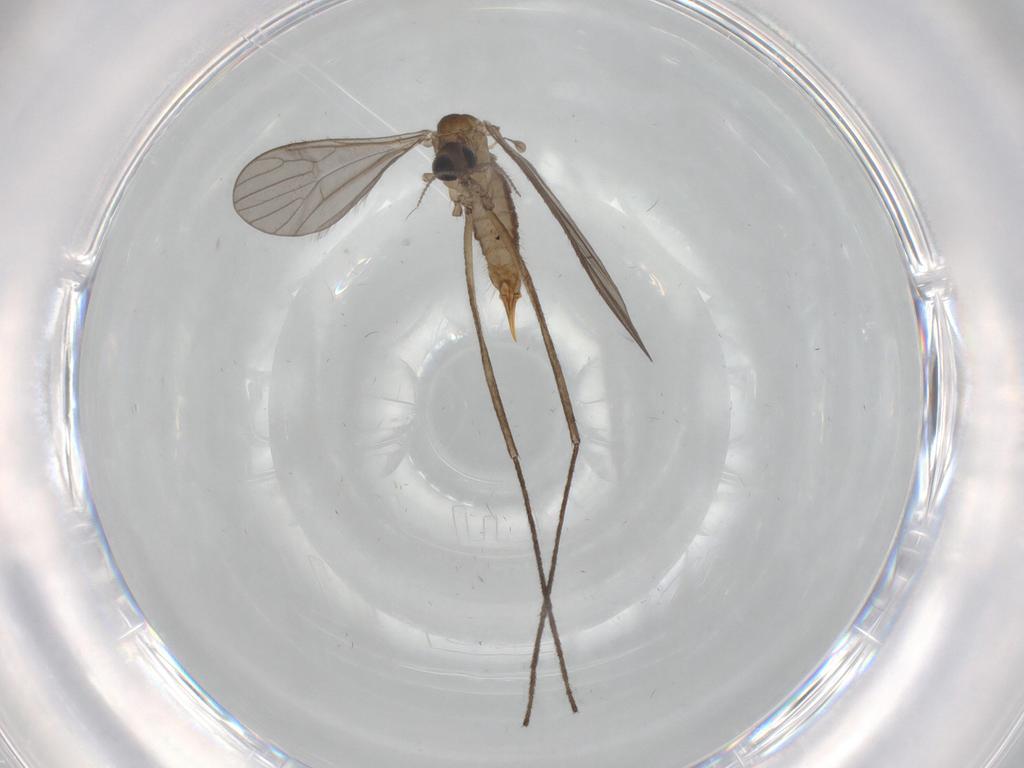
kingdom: Animalia
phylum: Arthropoda
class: Insecta
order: Diptera
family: Limoniidae
